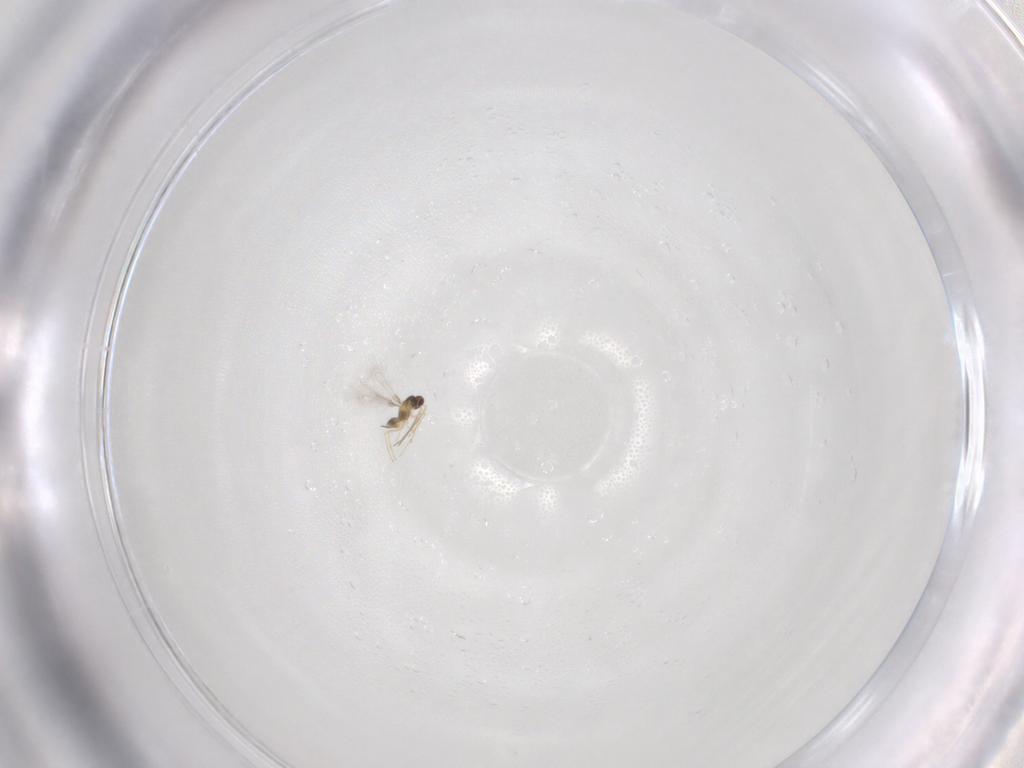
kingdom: Animalia
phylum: Arthropoda
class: Insecta
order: Hymenoptera
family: Mymaridae
